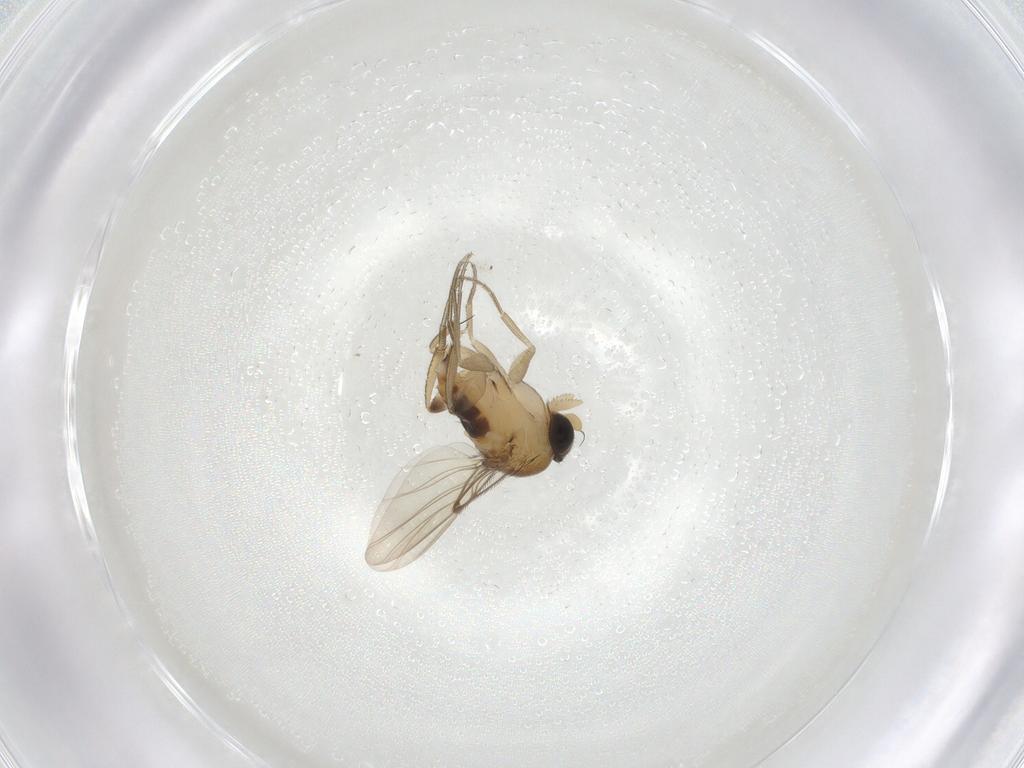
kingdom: Animalia
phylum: Arthropoda
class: Insecta
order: Diptera
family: Phoridae
